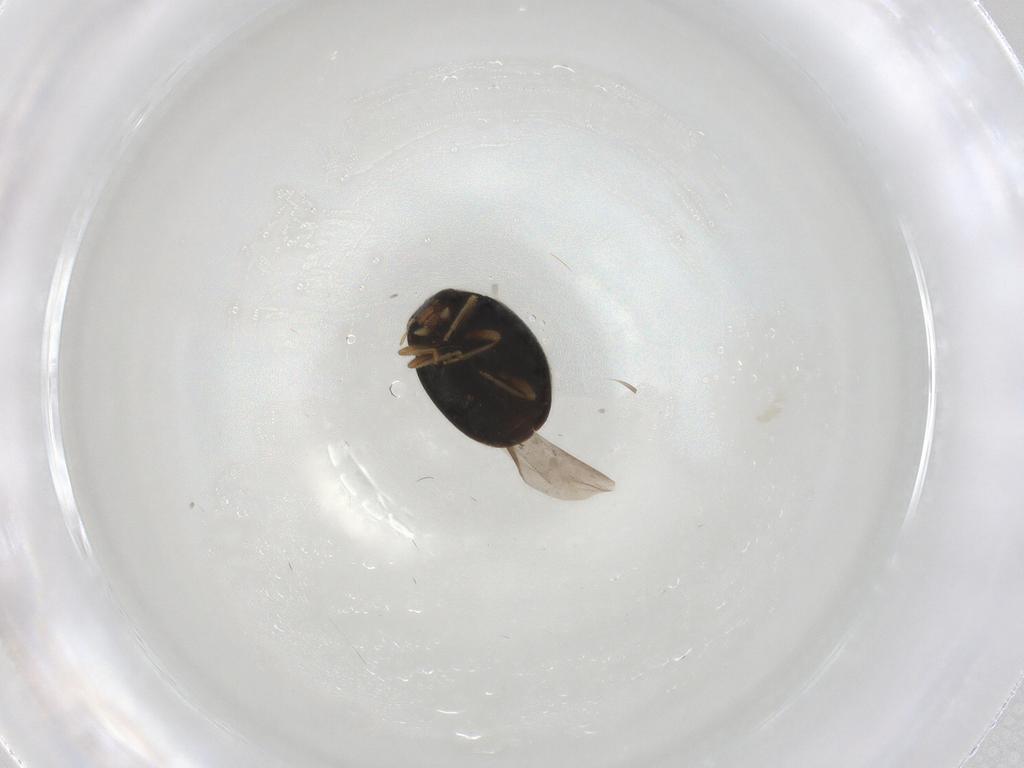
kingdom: Animalia
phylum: Arthropoda
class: Insecta
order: Coleoptera
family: Coccinellidae
